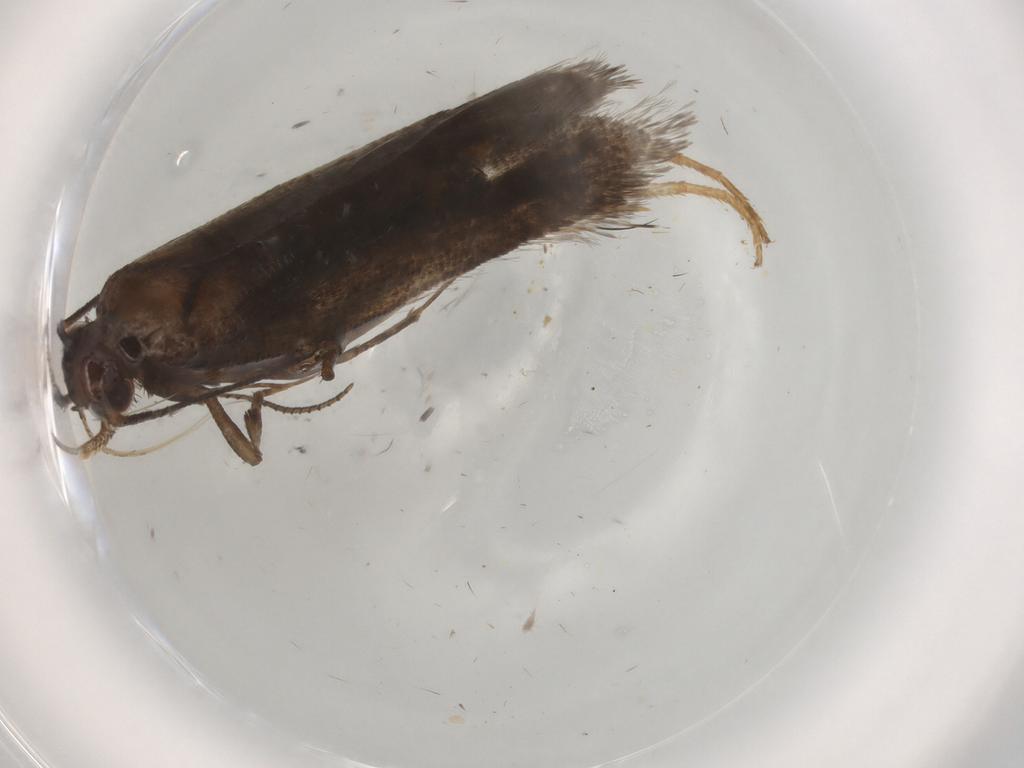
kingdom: Animalia
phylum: Arthropoda
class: Insecta
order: Lepidoptera
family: Gelechiidae
